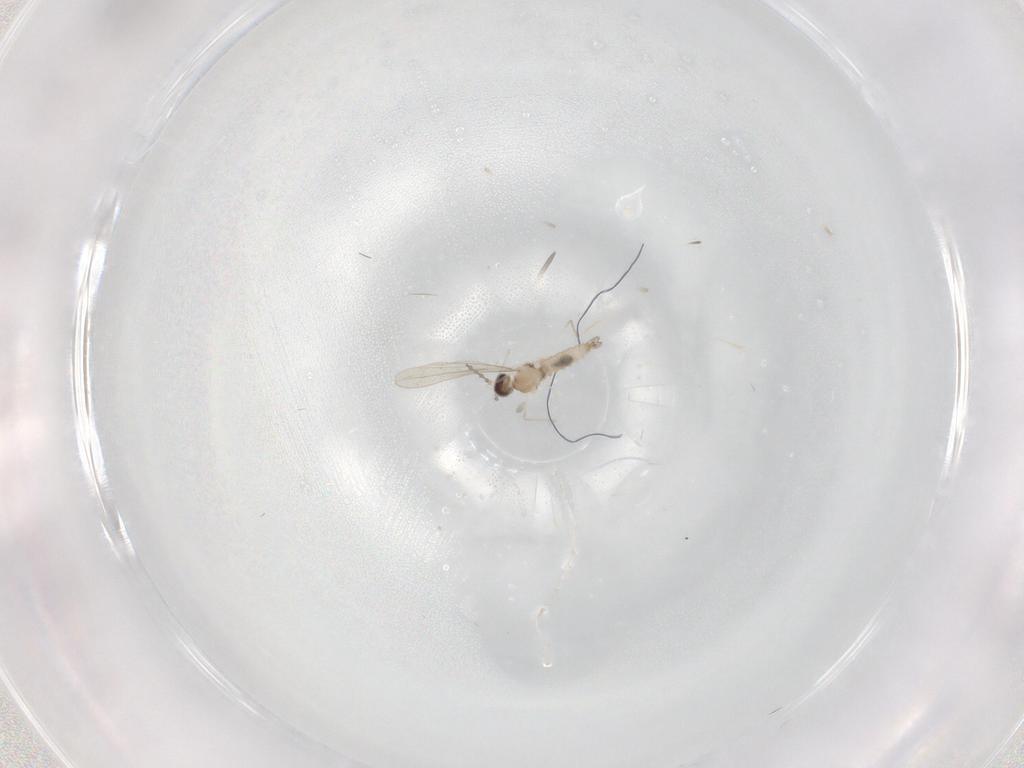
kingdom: Animalia
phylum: Arthropoda
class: Insecta
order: Diptera
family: Cecidomyiidae
